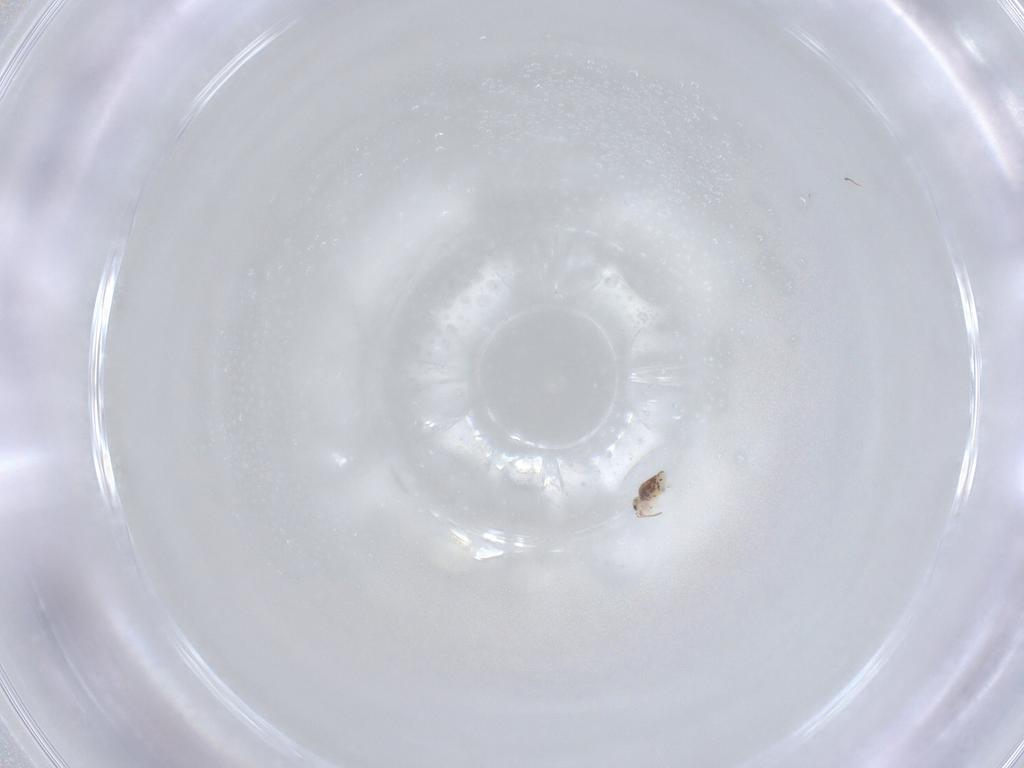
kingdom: Animalia
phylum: Arthropoda
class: Collembola
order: Symphypleona
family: Bourletiellidae
